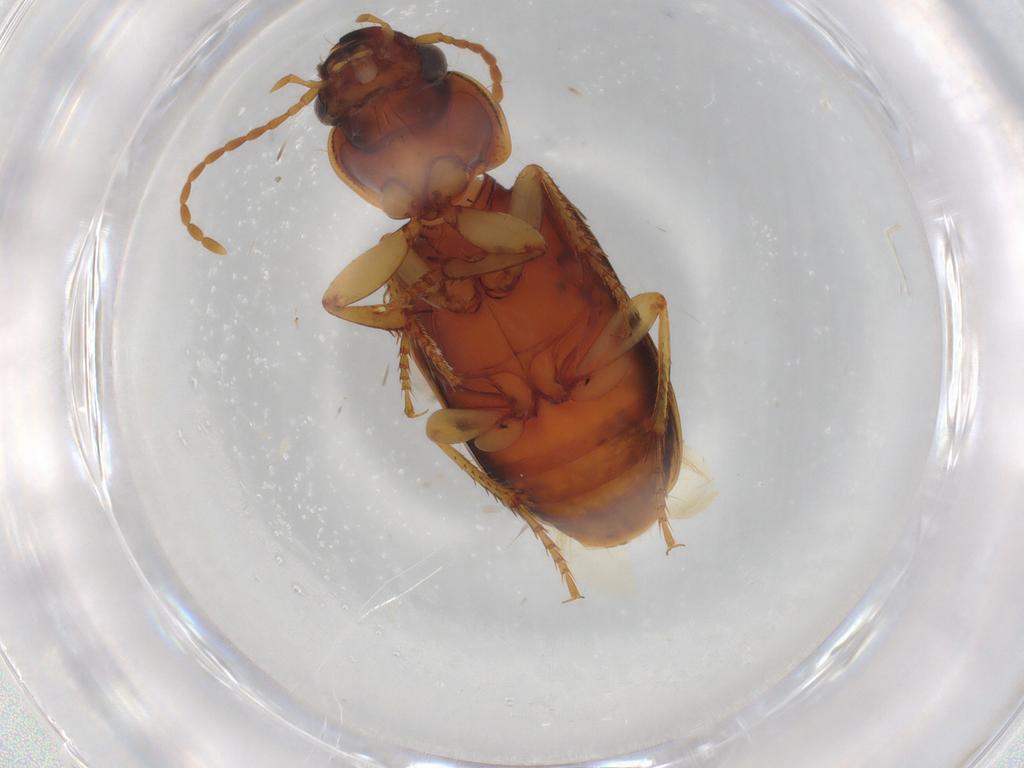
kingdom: Animalia
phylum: Arthropoda
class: Insecta
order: Coleoptera
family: Carabidae
